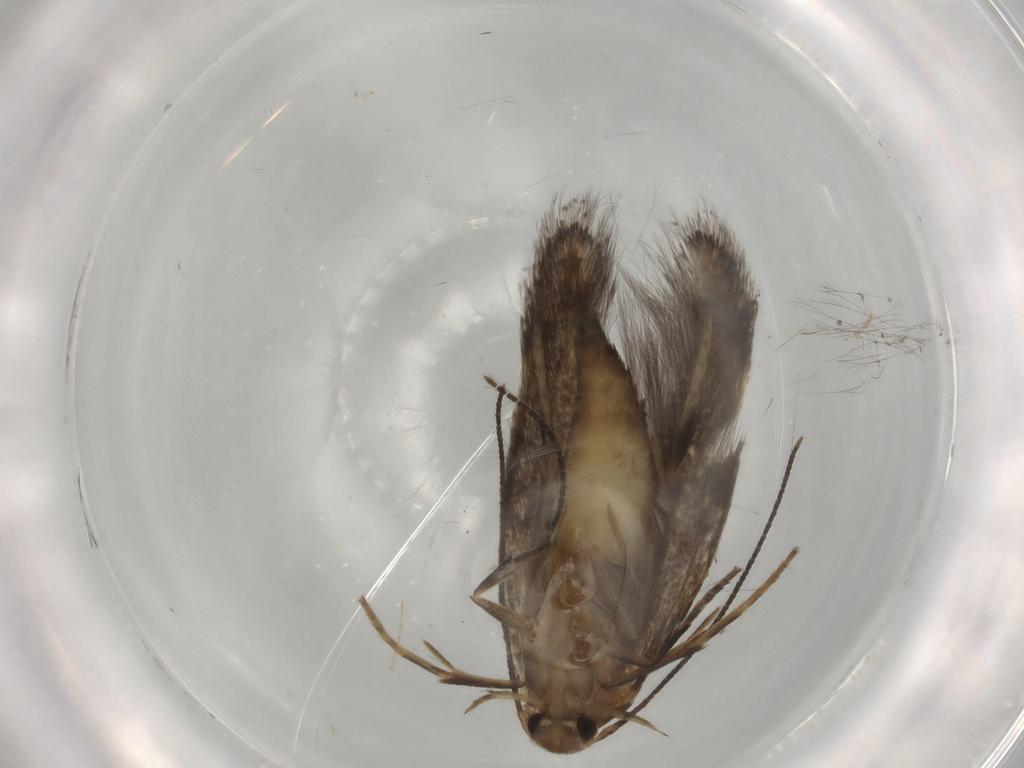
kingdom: Animalia
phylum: Arthropoda
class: Insecta
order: Lepidoptera
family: Elachistidae
